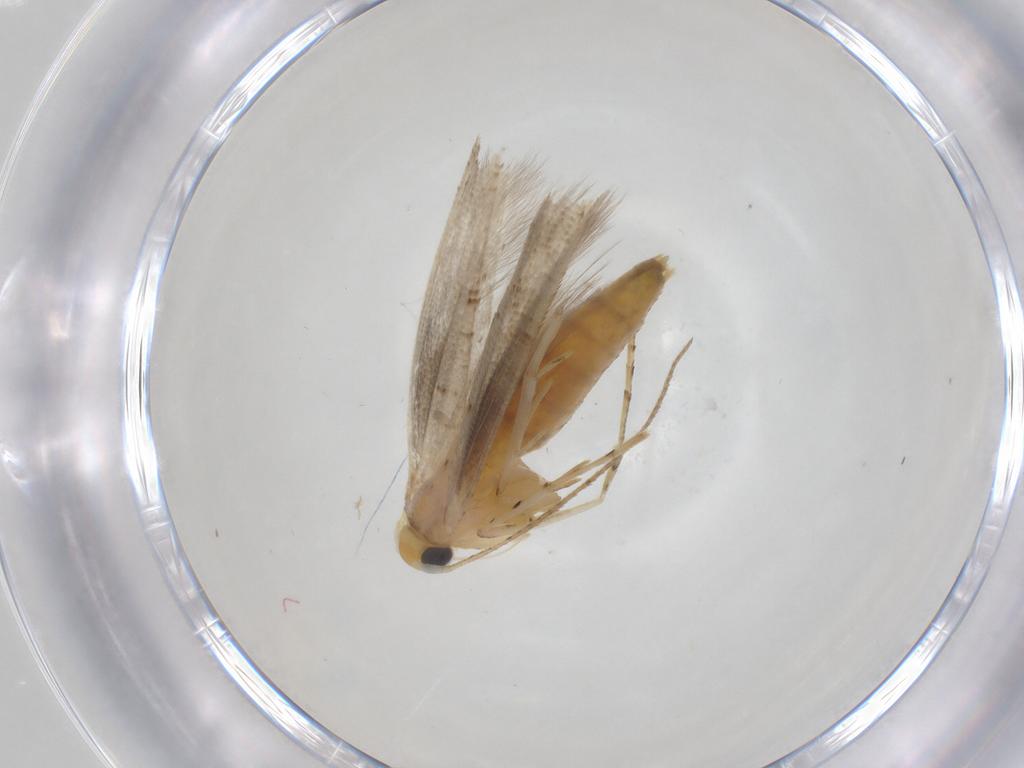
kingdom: Animalia
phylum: Arthropoda
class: Insecta
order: Lepidoptera
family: Argyresthiidae
